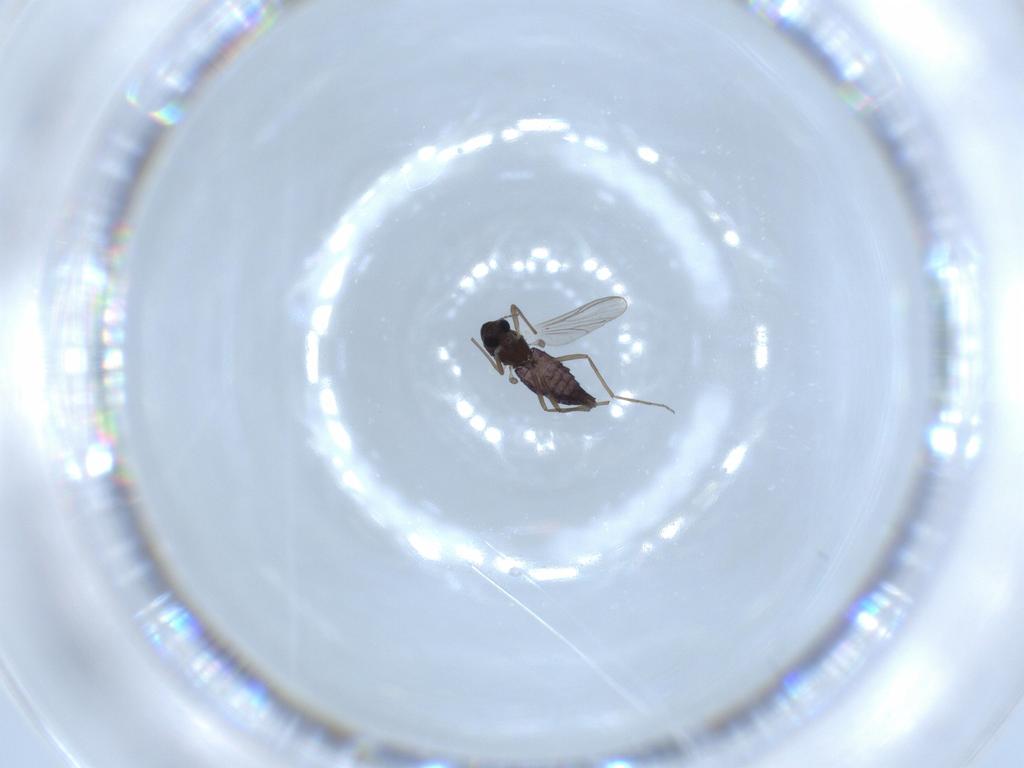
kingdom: Animalia
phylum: Arthropoda
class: Insecta
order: Diptera
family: Chironomidae
